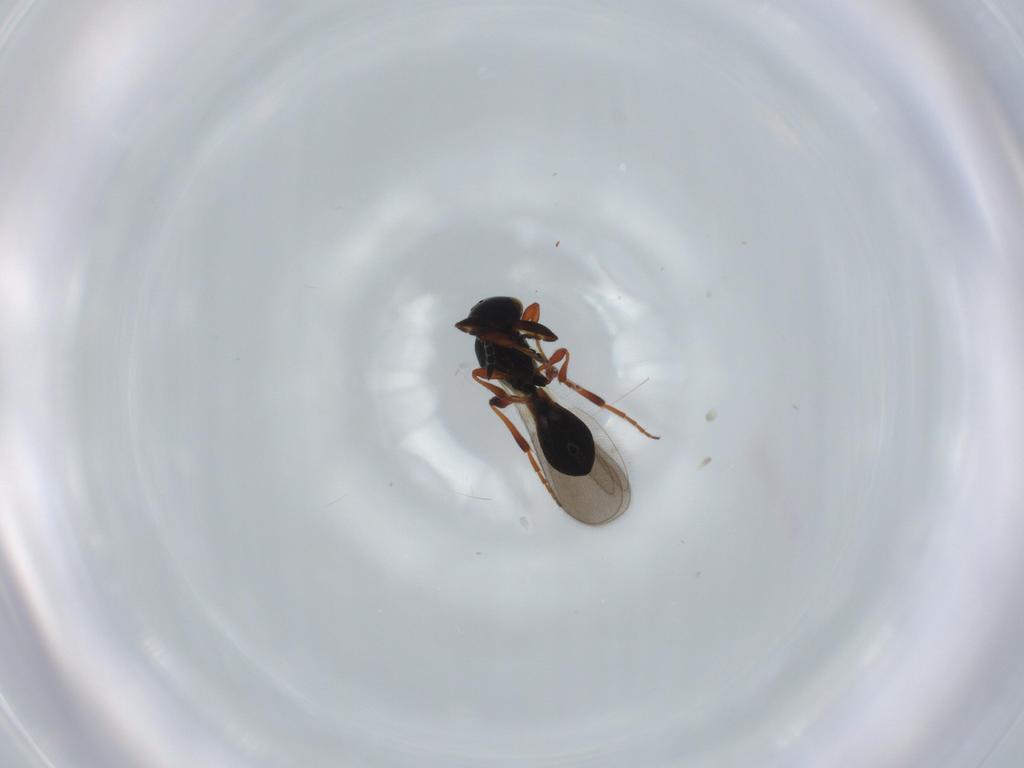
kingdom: Animalia
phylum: Arthropoda
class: Insecta
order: Hymenoptera
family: Platygastridae
